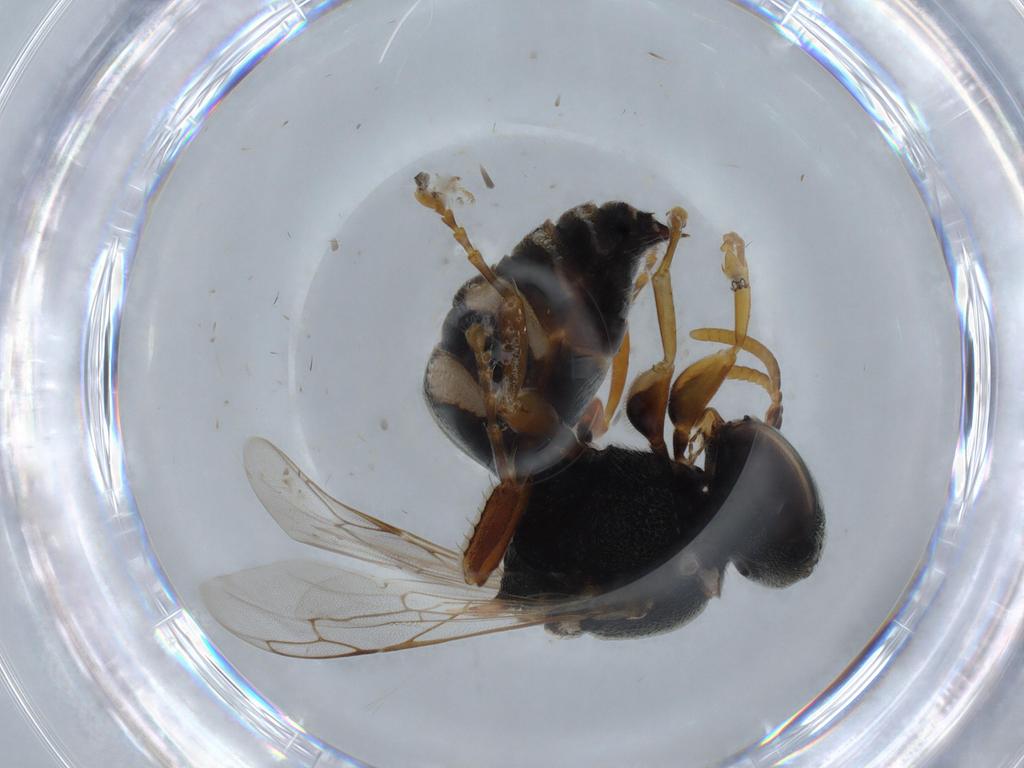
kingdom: Animalia
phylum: Arthropoda
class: Insecta
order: Hymenoptera
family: Crabronidae
